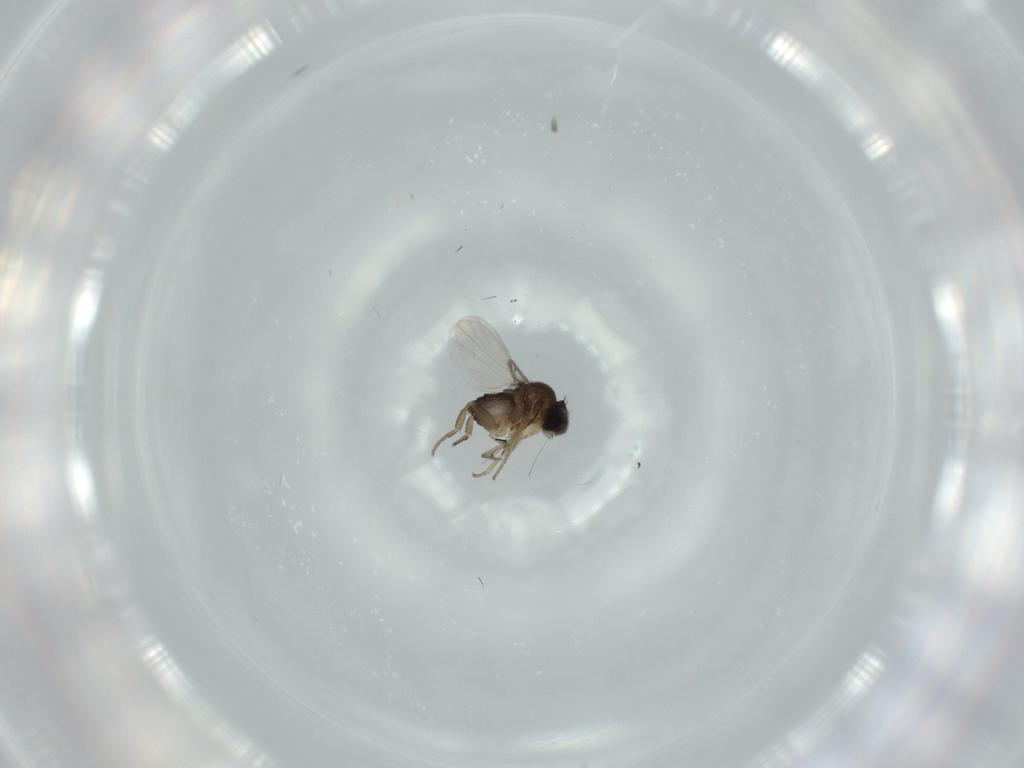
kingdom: Animalia
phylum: Arthropoda
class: Insecta
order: Diptera
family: Phoridae
